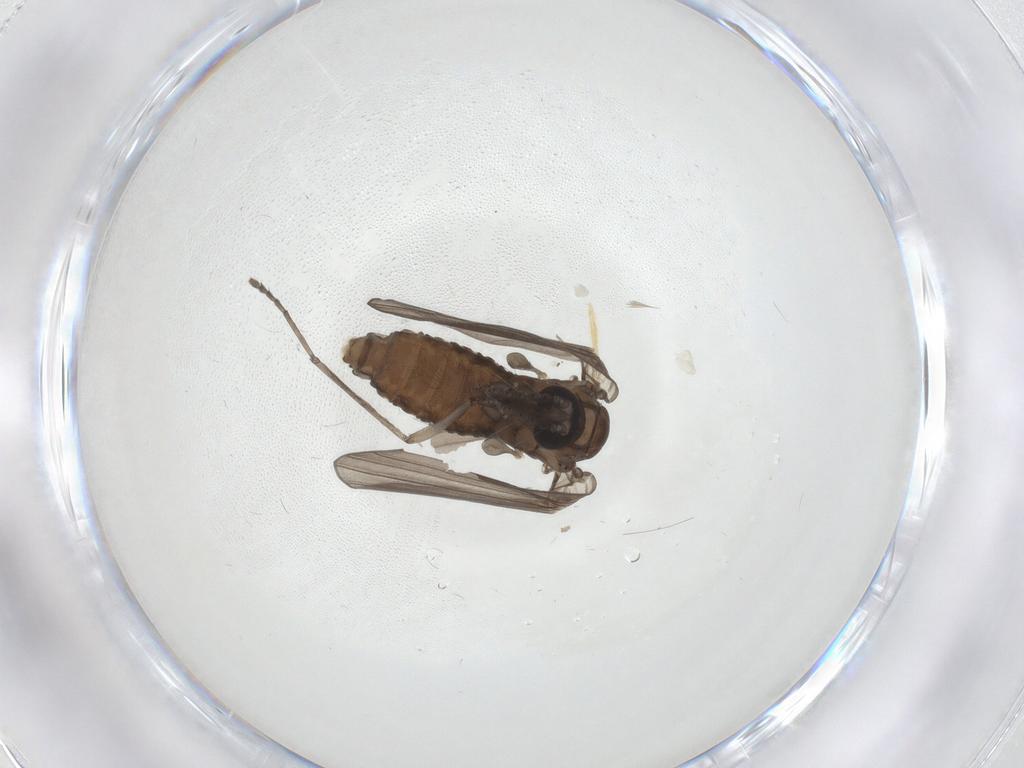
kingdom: Animalia
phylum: Arthropoda
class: Insecta
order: Diptera
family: Psychodidae
